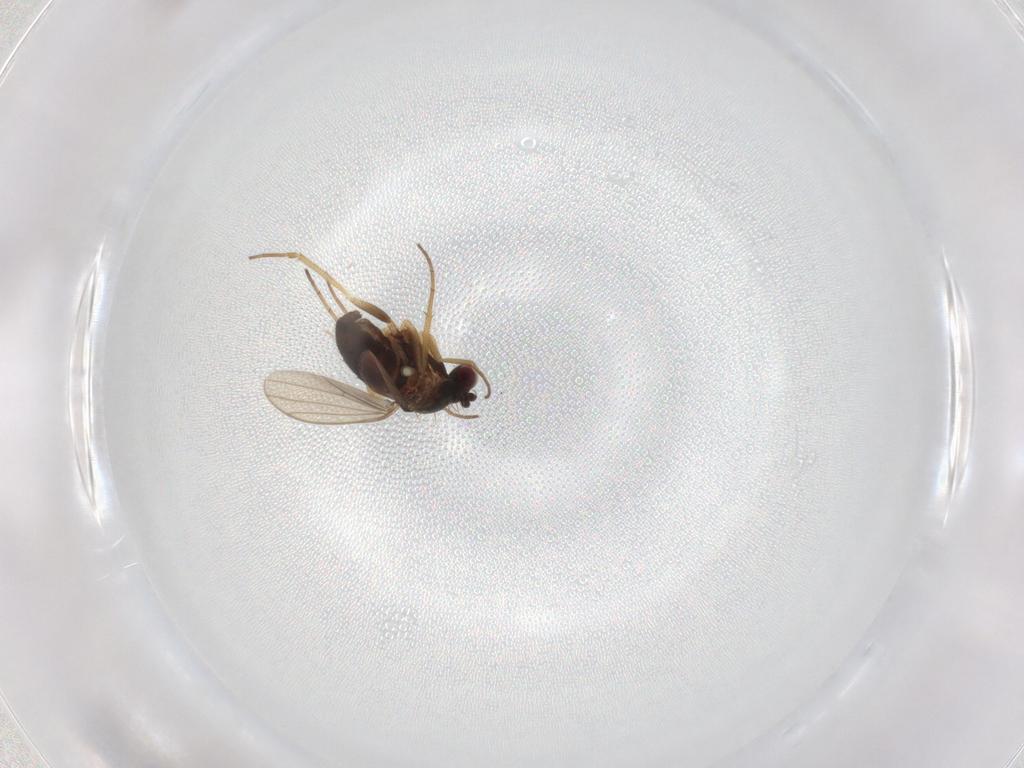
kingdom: Animalia
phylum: Arthropoda
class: Insecta
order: Diptera
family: Dolichopodidae
